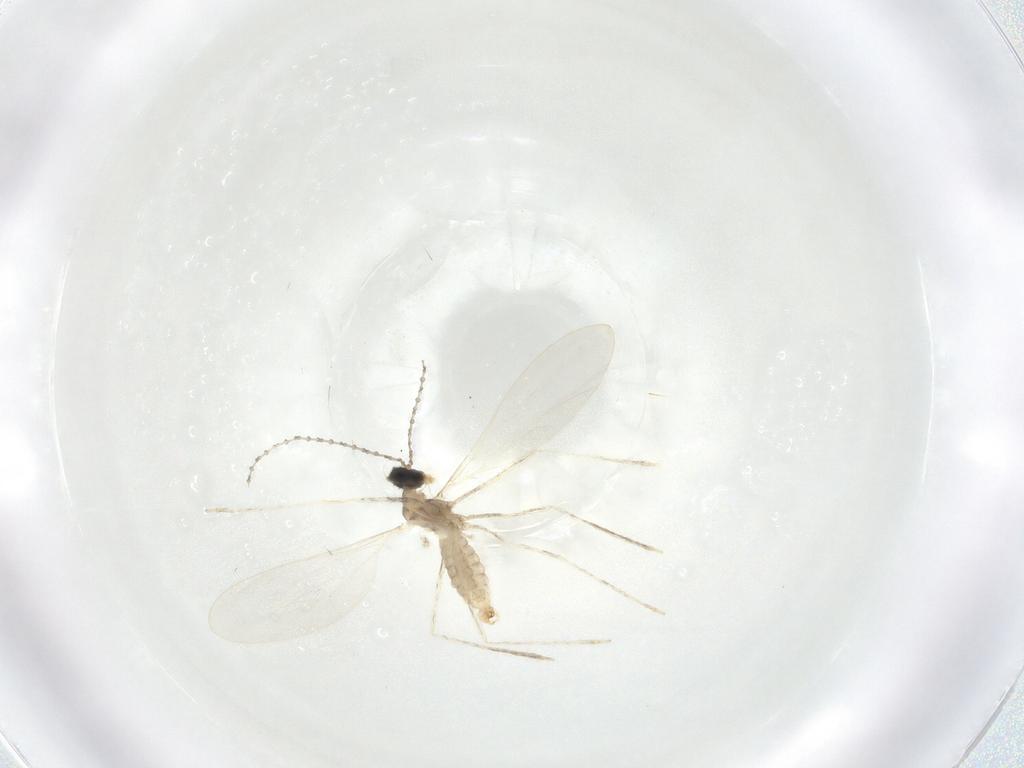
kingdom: Animalia
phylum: Arthropoda
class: Insecta
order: Diptera
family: Cecidomyiidae
